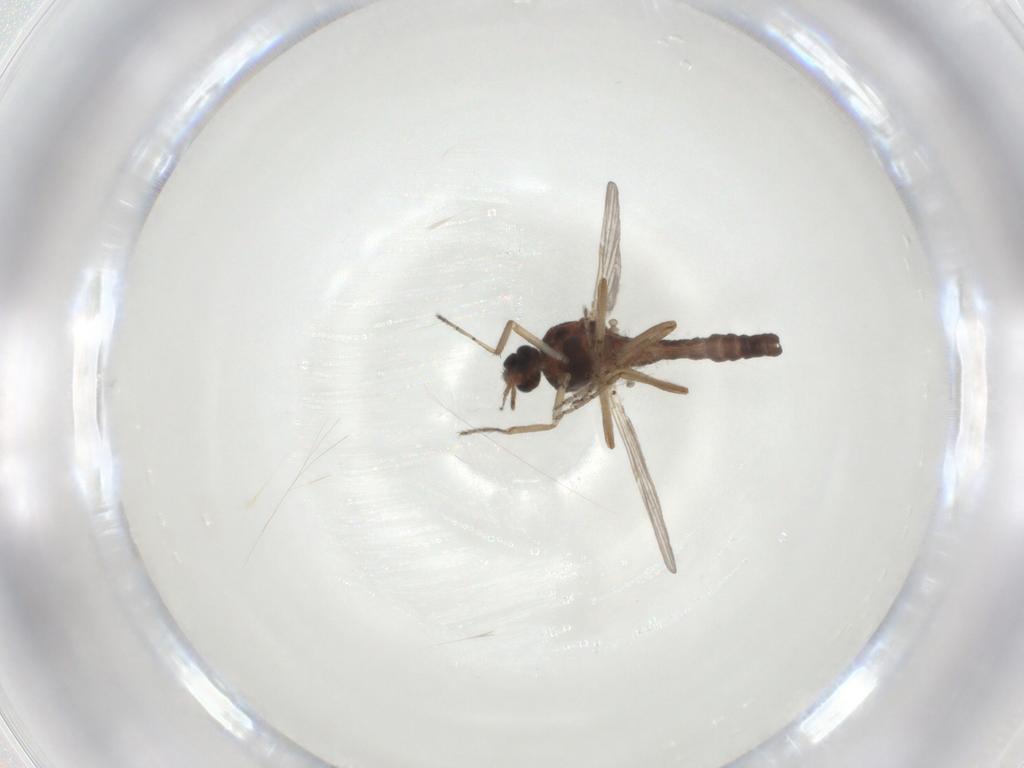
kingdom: Animalia
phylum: Arthropoda
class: Insecta
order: Diptera
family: Ceratopogonidae
